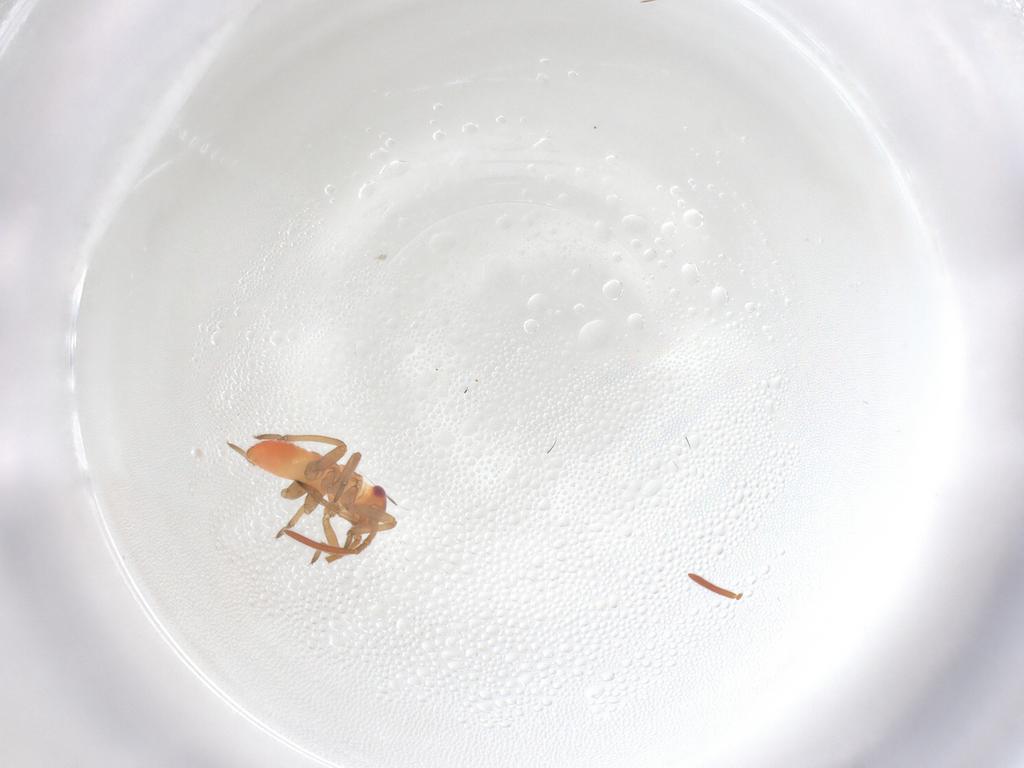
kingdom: Animalia
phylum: Arthropoda
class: Insecta
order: Hemiptera
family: Miridae
